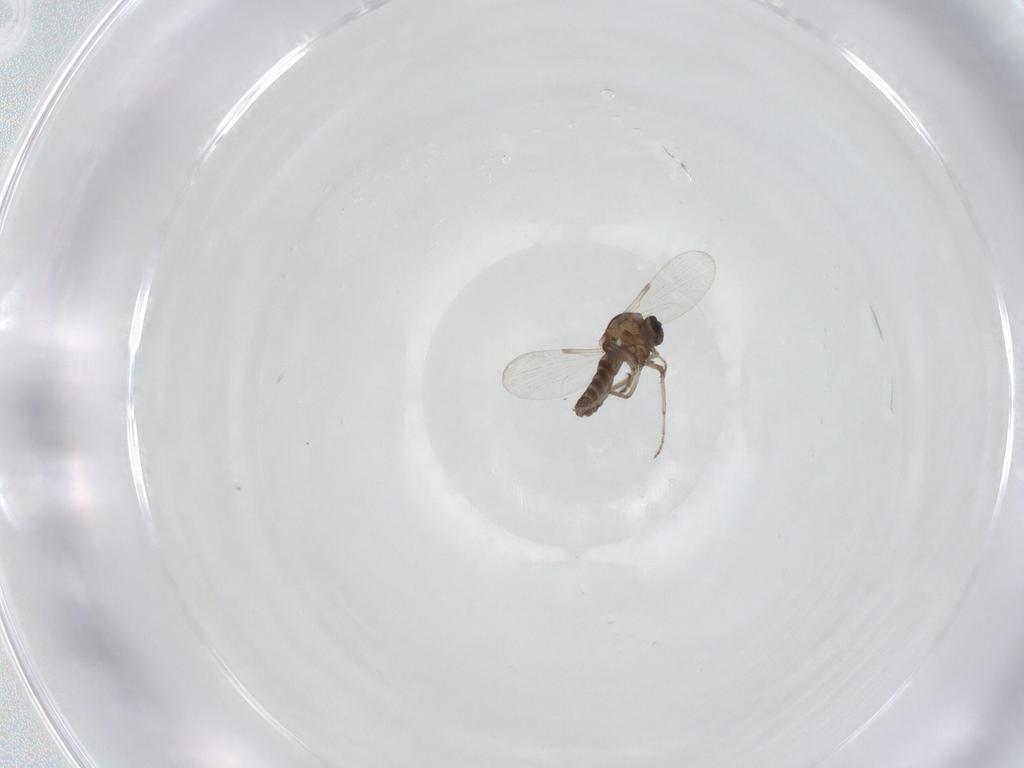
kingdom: Animalia
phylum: Arthropoda
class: Insecta
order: Diptera
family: Ceratopogonidae
